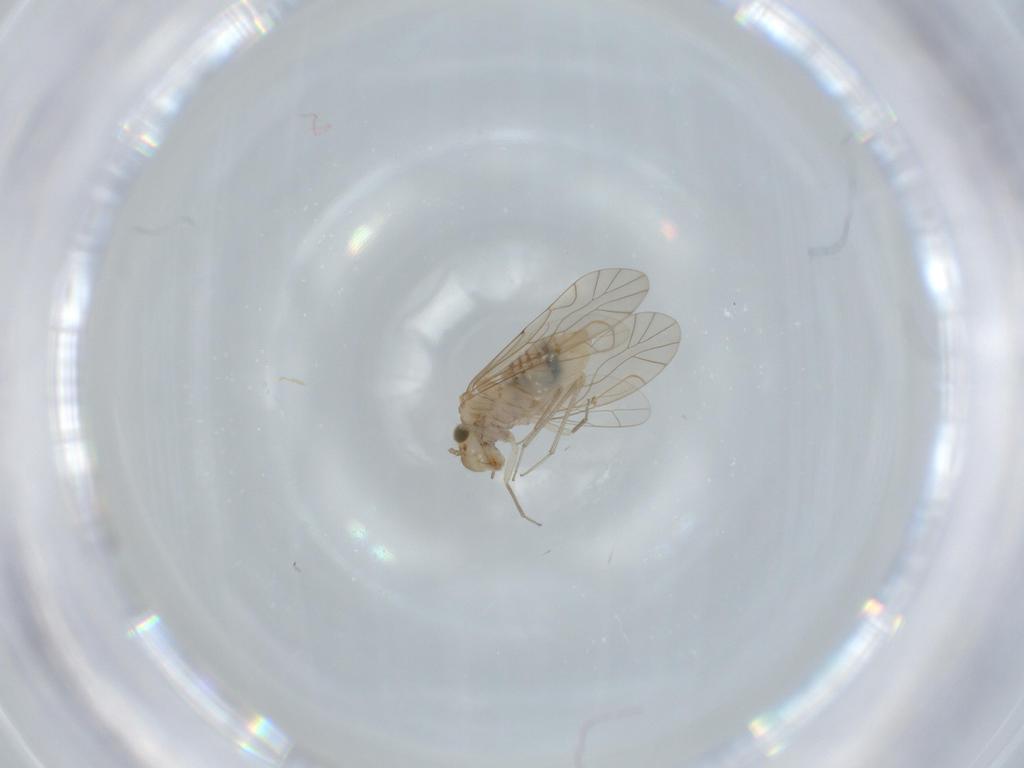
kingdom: Animalia
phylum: Arthropoda
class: Insecta
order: Psocodea
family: Lachesillidae
